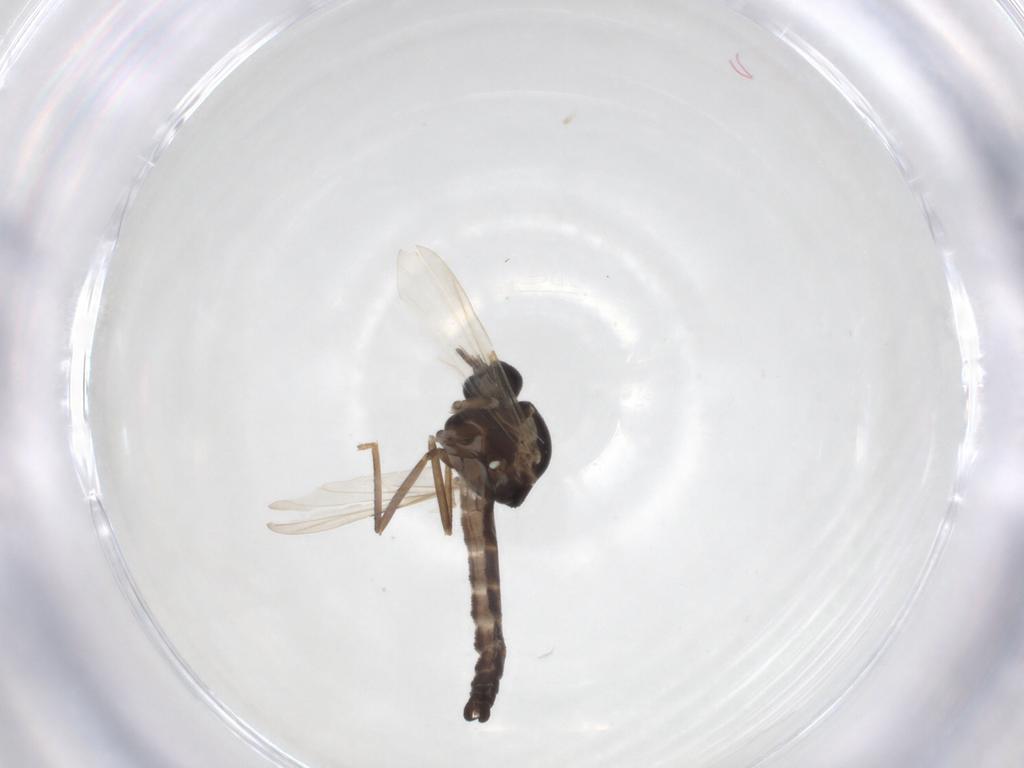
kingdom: Animalia
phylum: Arthropoda
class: Insecta
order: Diptera
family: Ceratopogonidae
